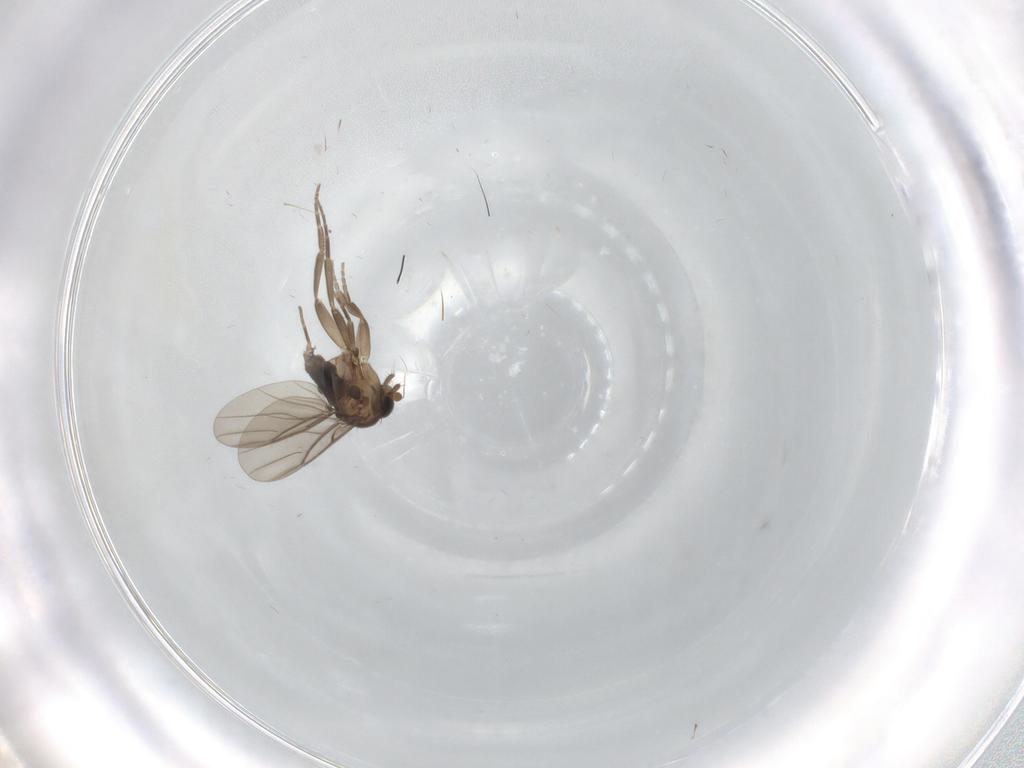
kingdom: Animalia
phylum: Arthropoda
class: Insecta
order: Diptera
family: Chironomidae
